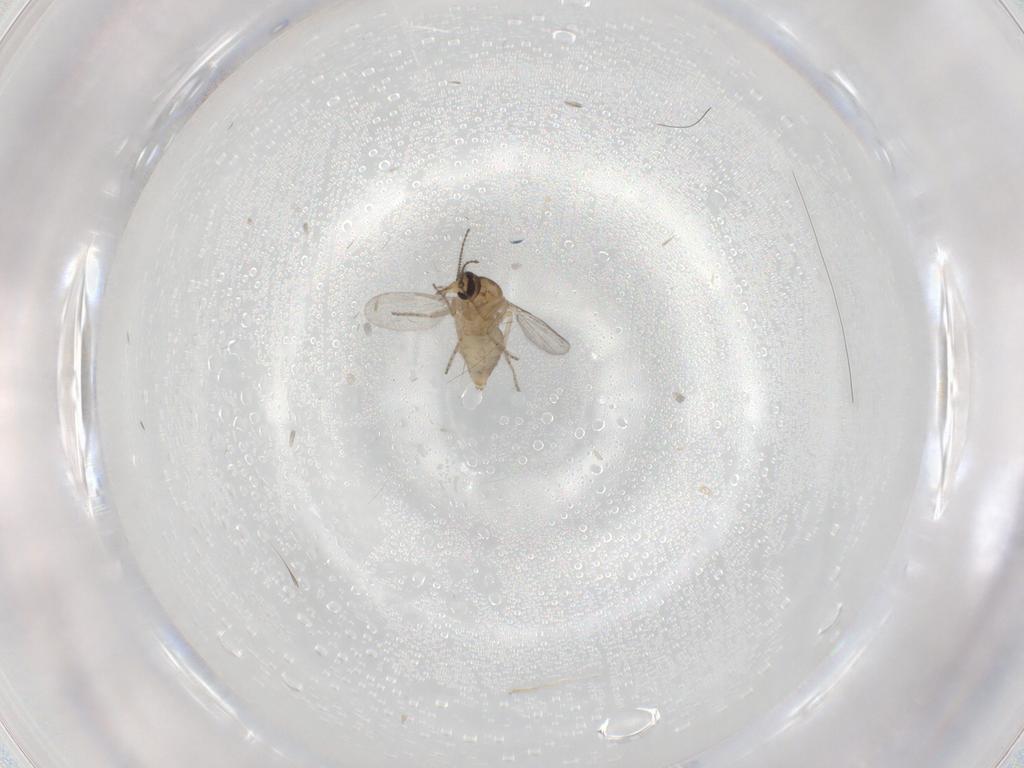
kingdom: Animalia
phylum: Arthropoda
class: Insecta
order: Diptera
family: Ceratopogonidae
